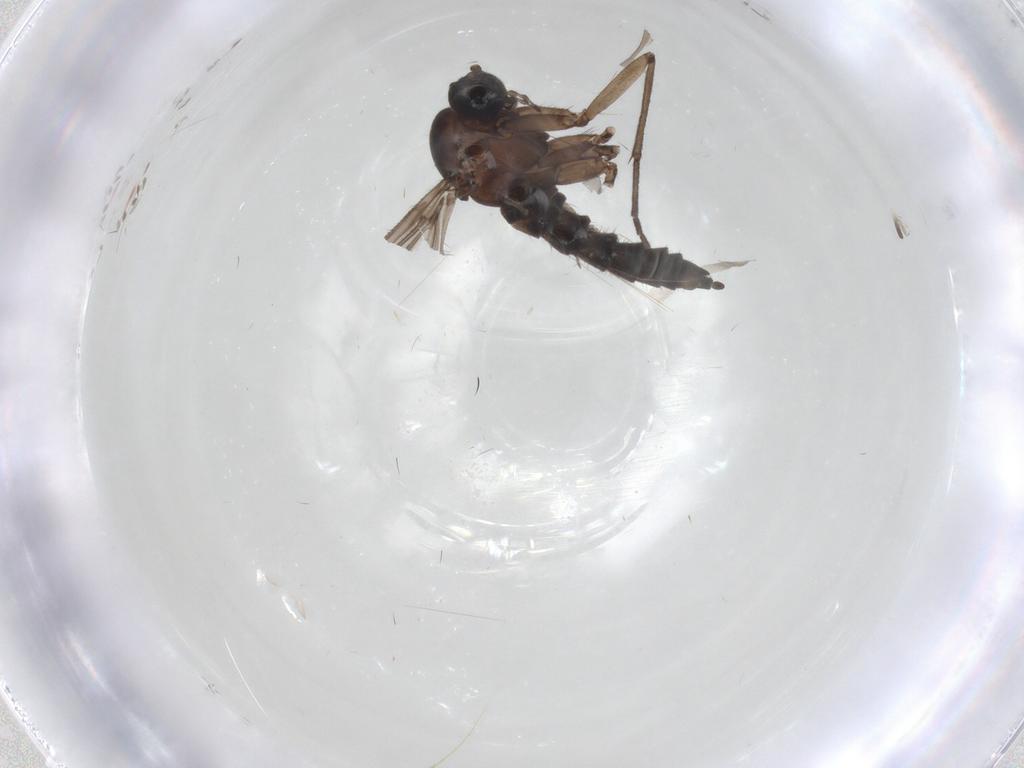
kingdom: Animalia
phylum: Arthropoda
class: Insecta
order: Diptera
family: Sciaridae
